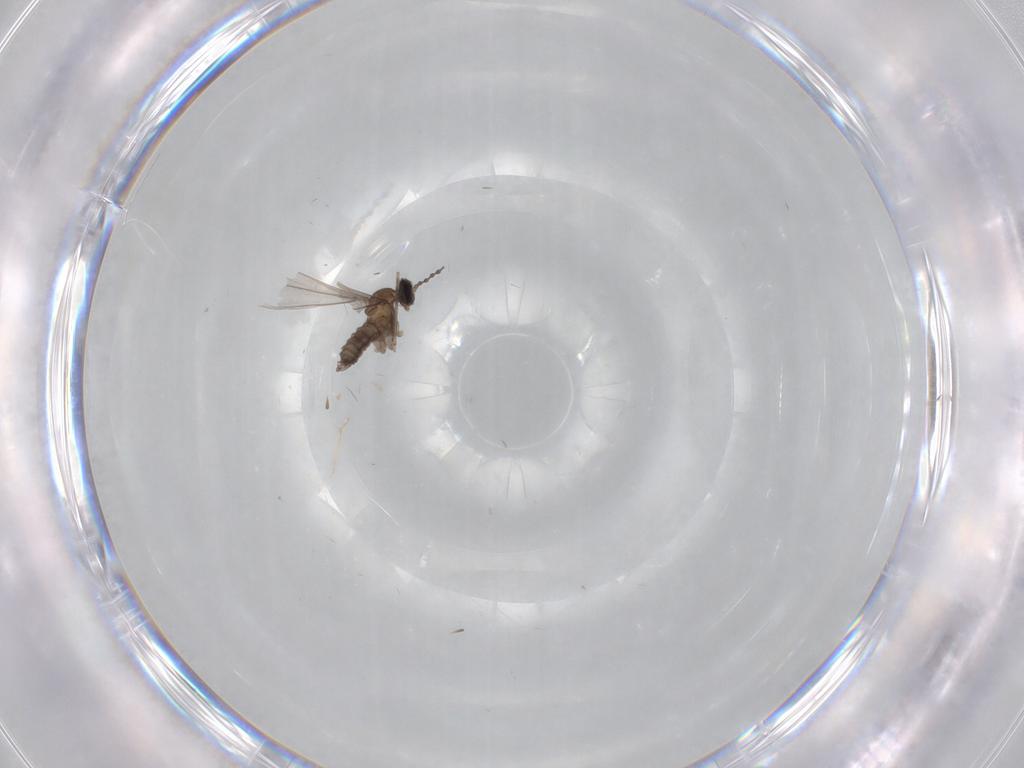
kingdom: Animalia
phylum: Arthropoda
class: Insecta
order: Diptera
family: Cecidomyiidae
